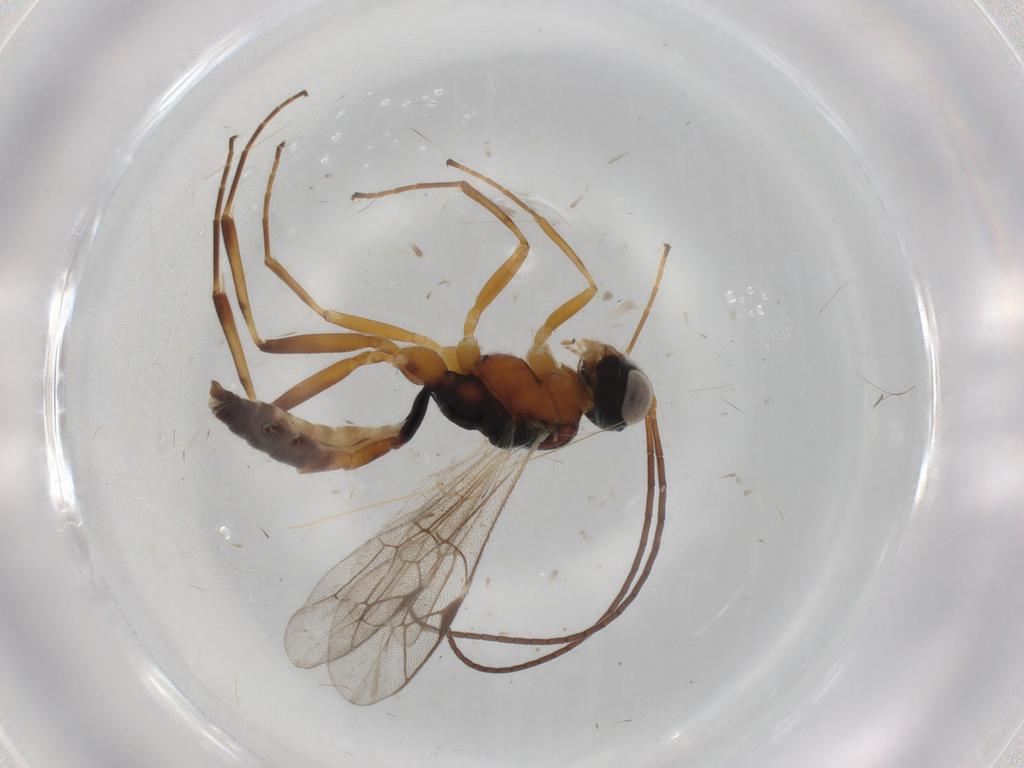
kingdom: Animalia
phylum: Arthropoda
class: Insecta
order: Hymenoptera
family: Ichneumonidae
